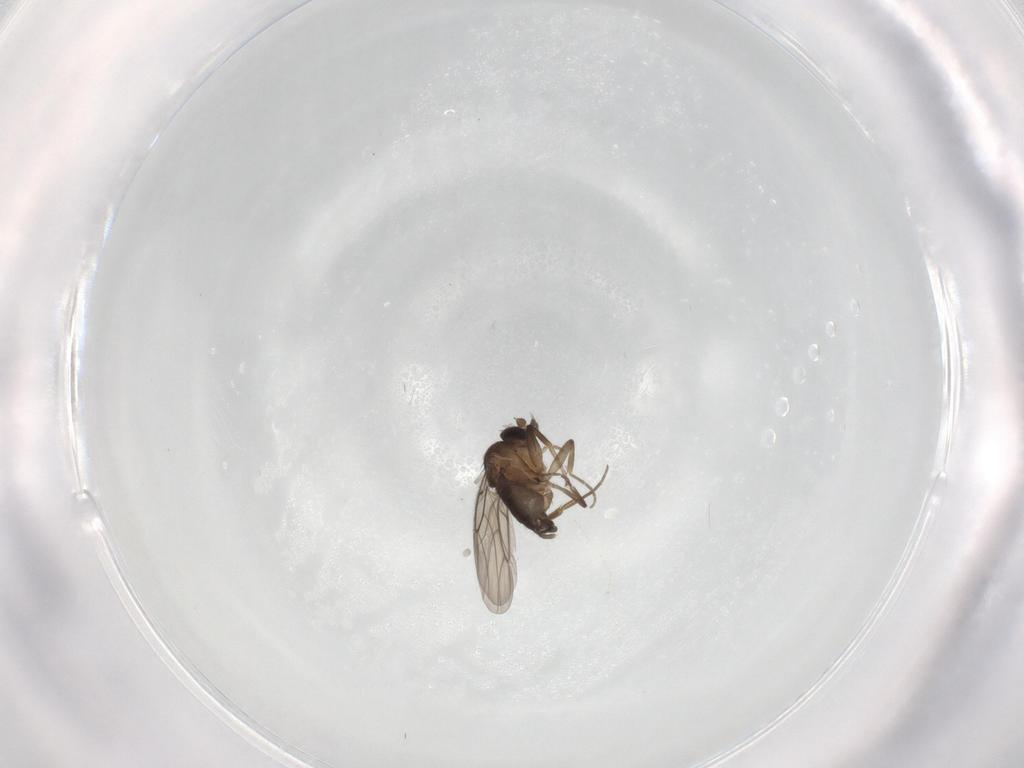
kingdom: Animalia
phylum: Arthropoda
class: Insecta
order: Diptera
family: Phoridae
